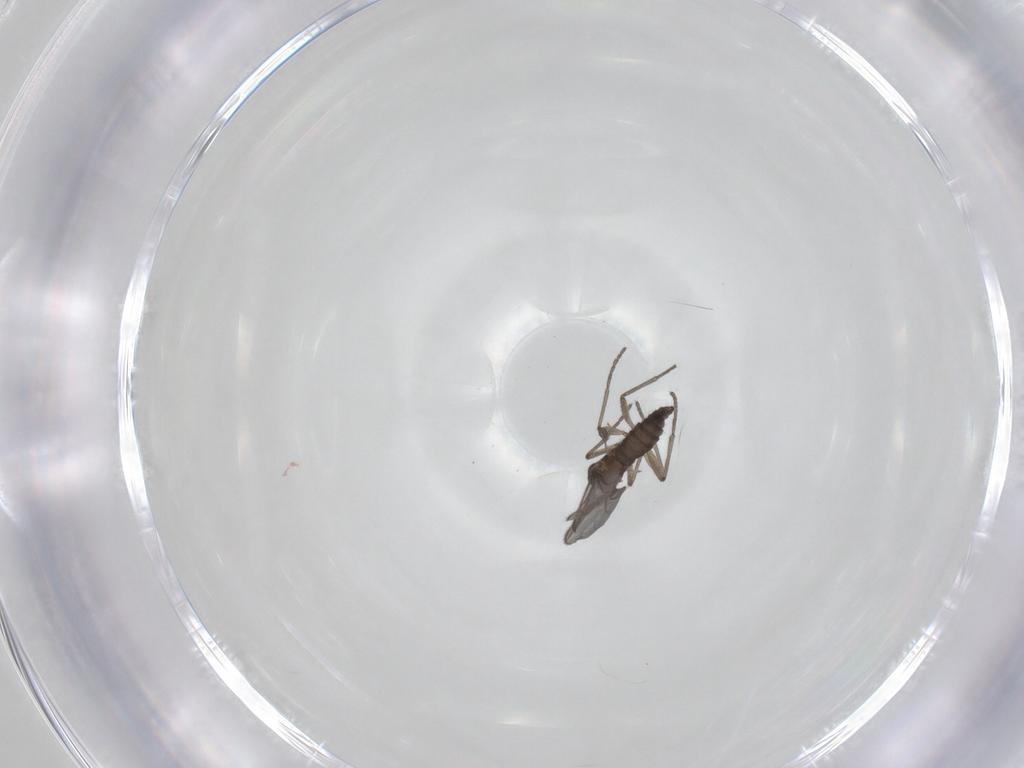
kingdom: Animalia
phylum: Arthropoda
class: Insecta
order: Diptera
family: Sciaridae
